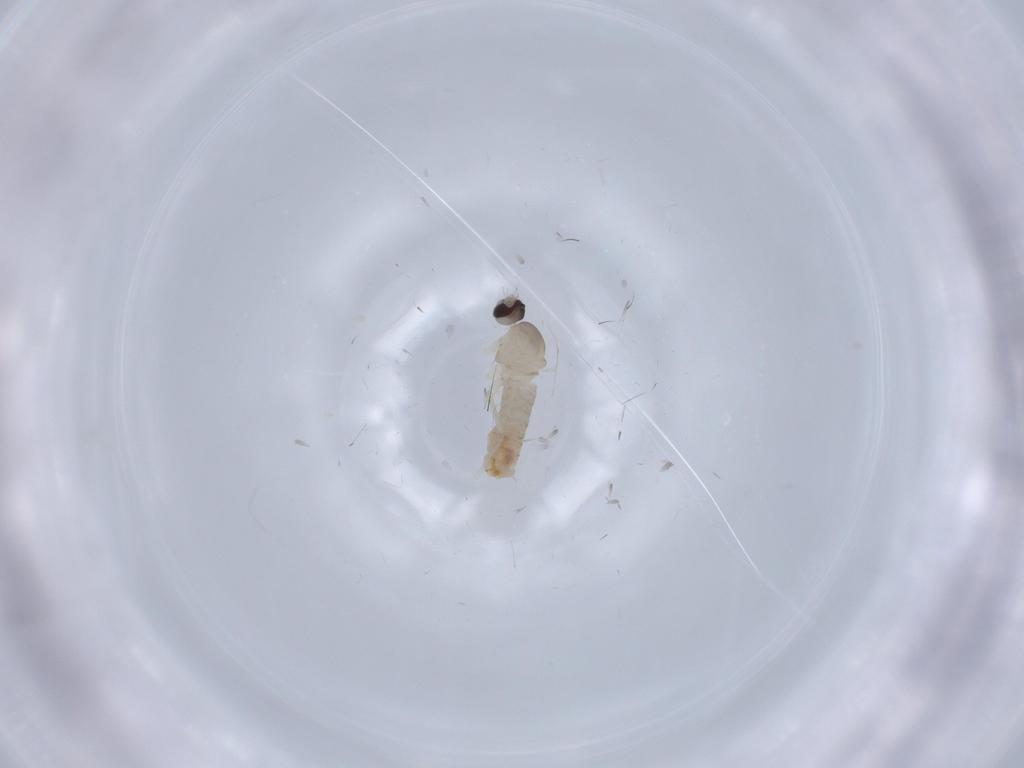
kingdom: Animalia
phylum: Arthropoda
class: Insecta
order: Diptera
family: Cecidomyiidae
